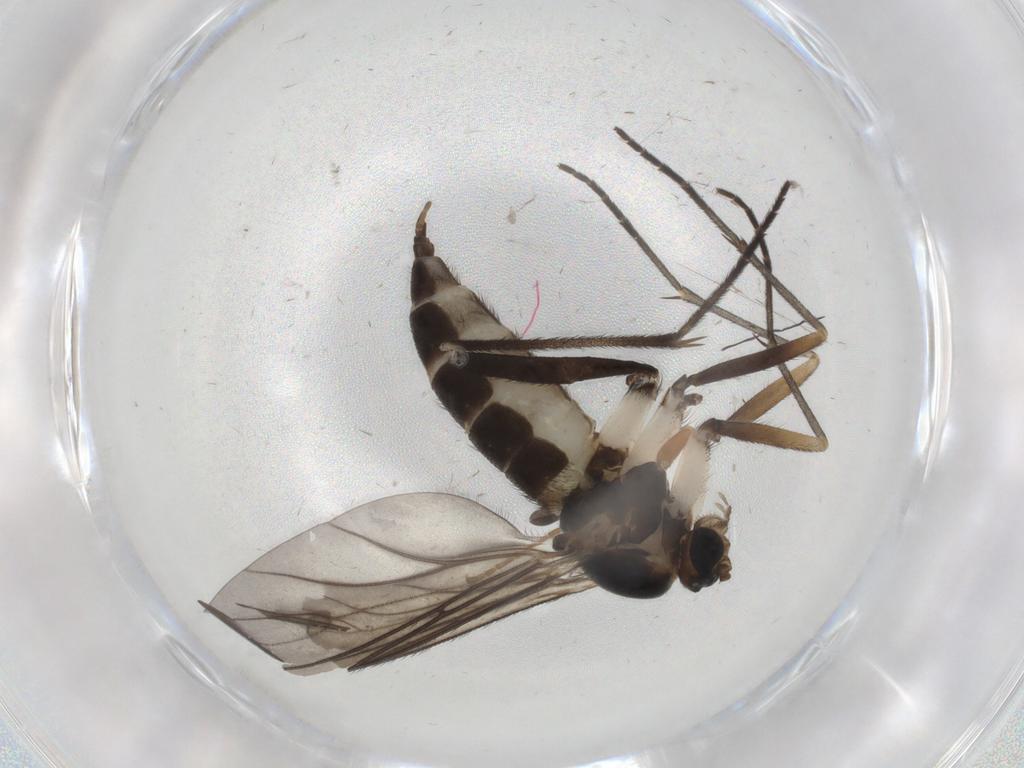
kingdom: Animalia
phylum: Arthropoda
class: Insecta
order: Diptera
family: Sciaridae
